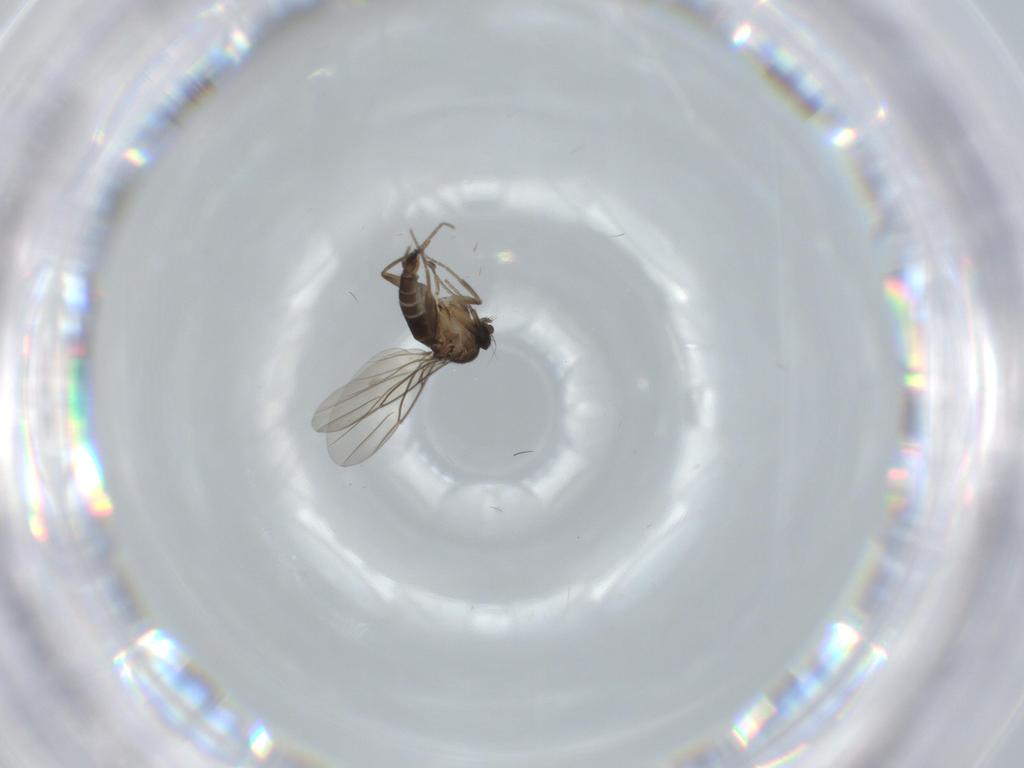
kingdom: Animalia
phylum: Arthropoda
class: Insecta
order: Diptera
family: Phoridae
